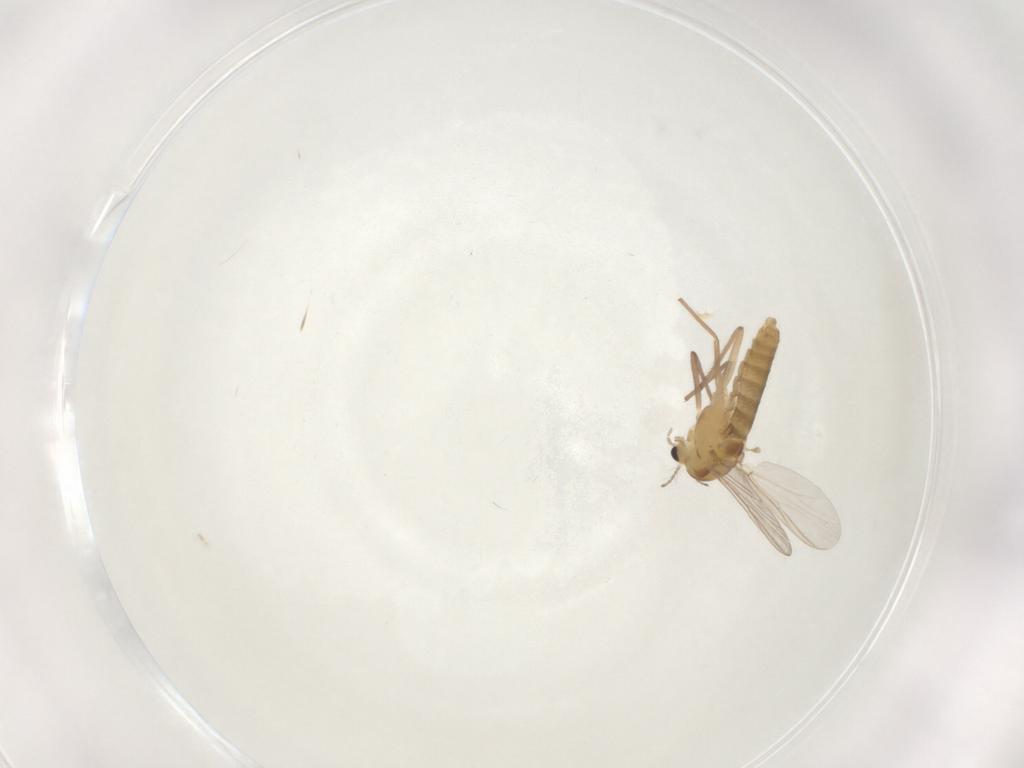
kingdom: Animalia
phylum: Arthropoda
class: Insecta
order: Diptera
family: Chironomidae
